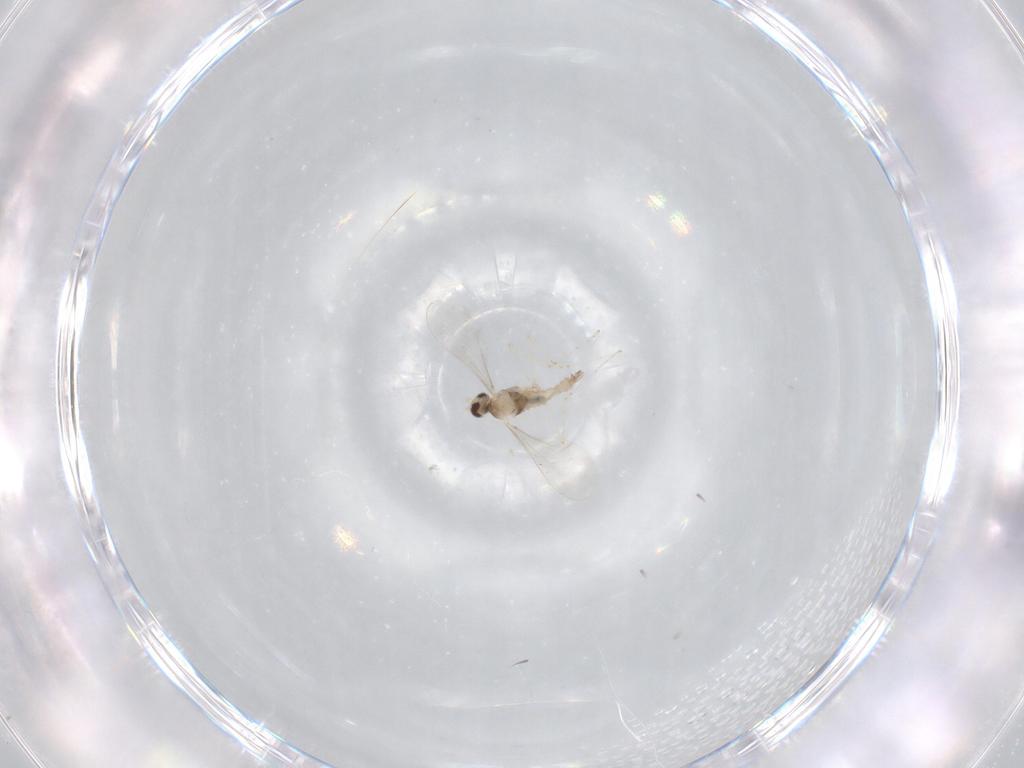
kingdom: Animalia
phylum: Arthropoda
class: Insecta
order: Diptera
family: Cecidomyiidae
